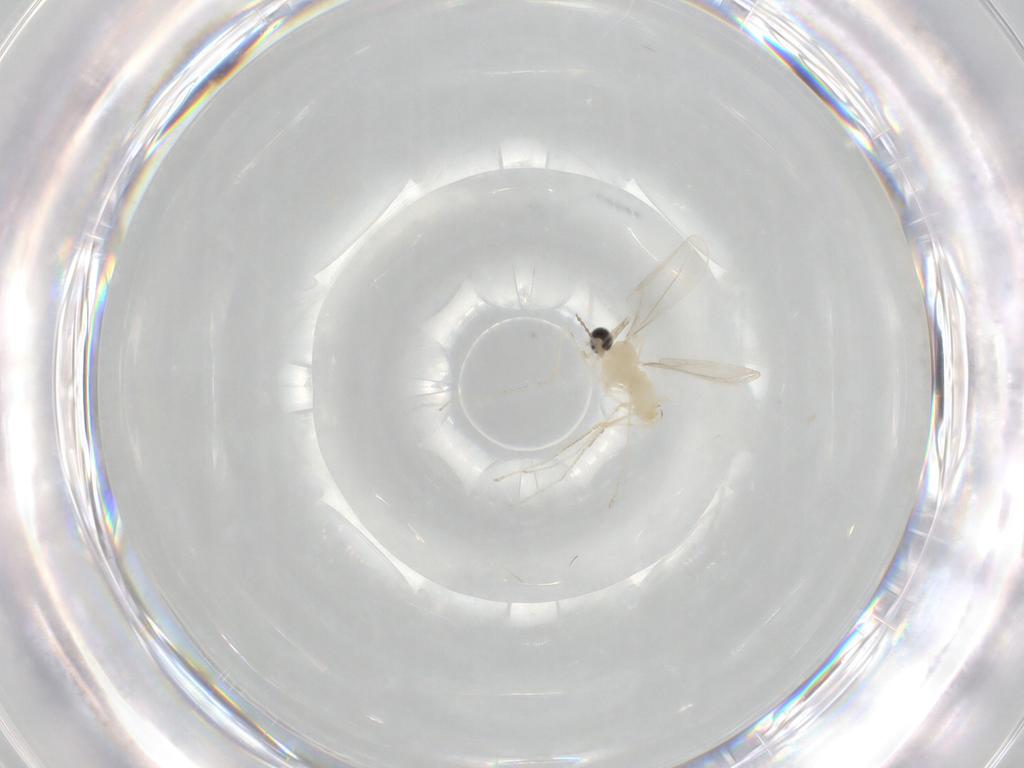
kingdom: Animalia
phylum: Arthropoda
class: Insecta
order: Diptera
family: Cecidomyiidae
